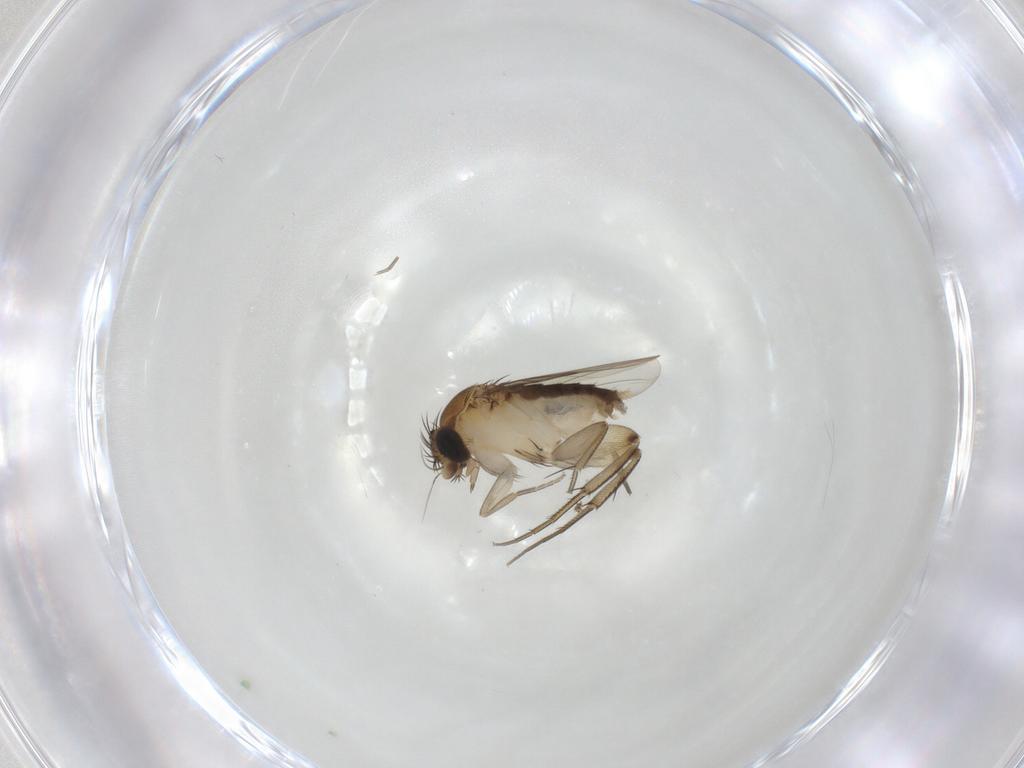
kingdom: Animalia
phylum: Arthropoda
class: Insecta
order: Diptera
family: Phoridae
